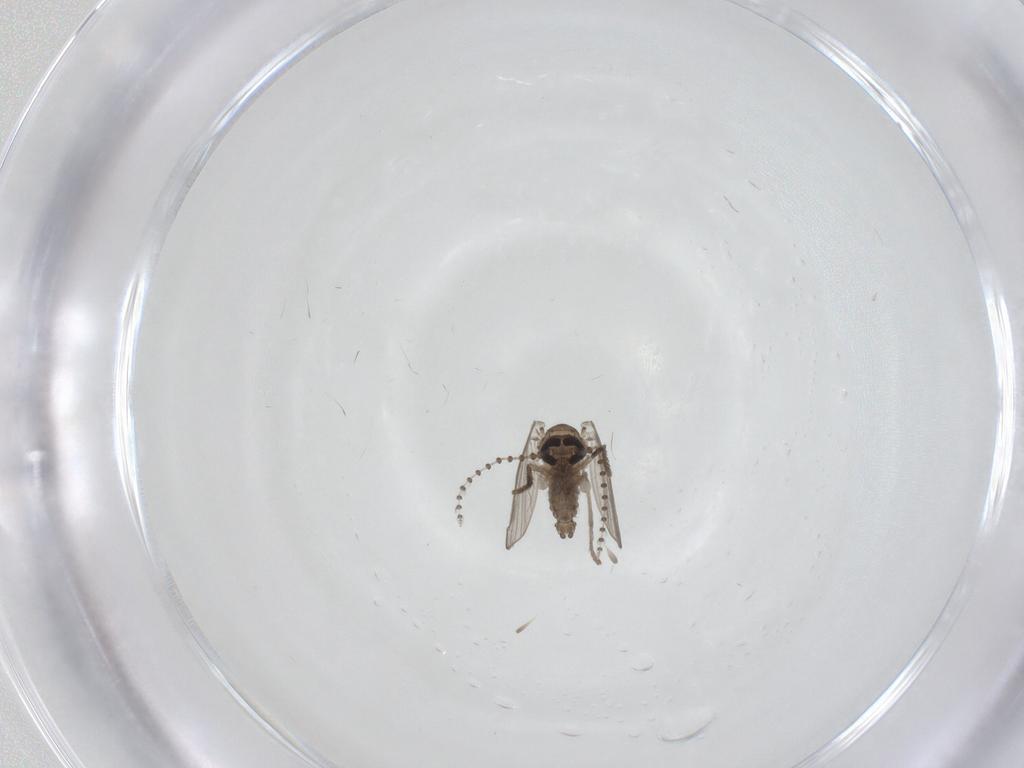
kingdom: Animalia
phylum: Arthropoda
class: Insecta
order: Diptera
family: Psychodidae
